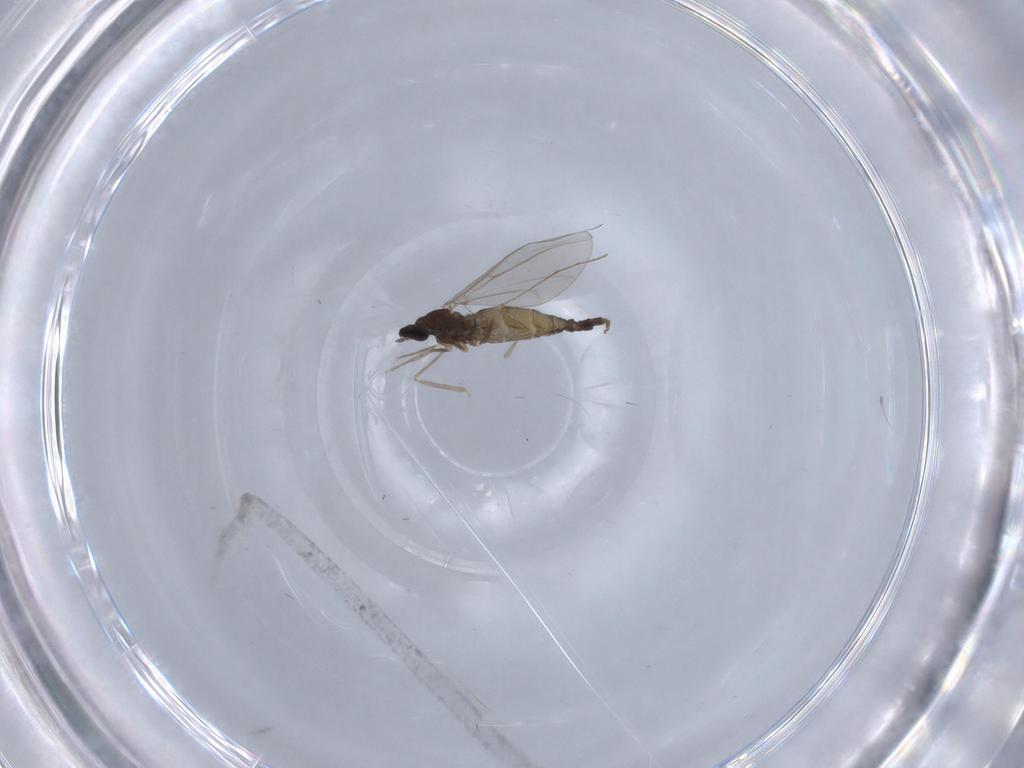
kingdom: Animalia
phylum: Arthropoda
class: Insecta
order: Diptera
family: Cecidomyiidae
